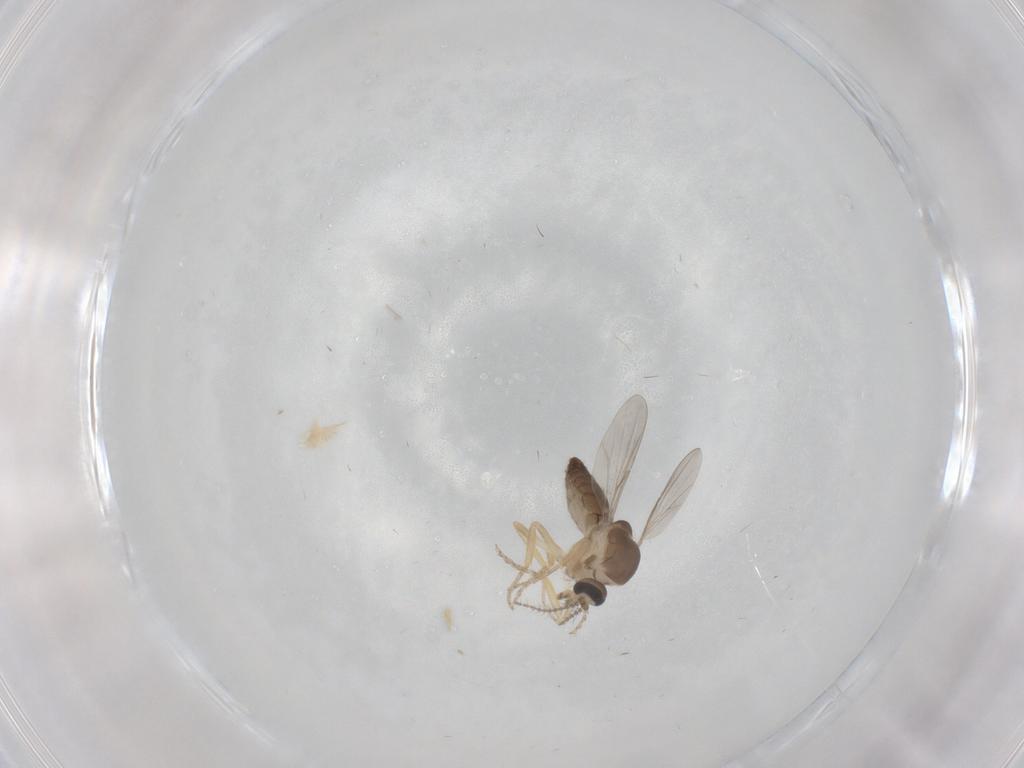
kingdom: Animalia
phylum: Arthropoda
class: Insecta
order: Diptera
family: Ceratopogonidae
